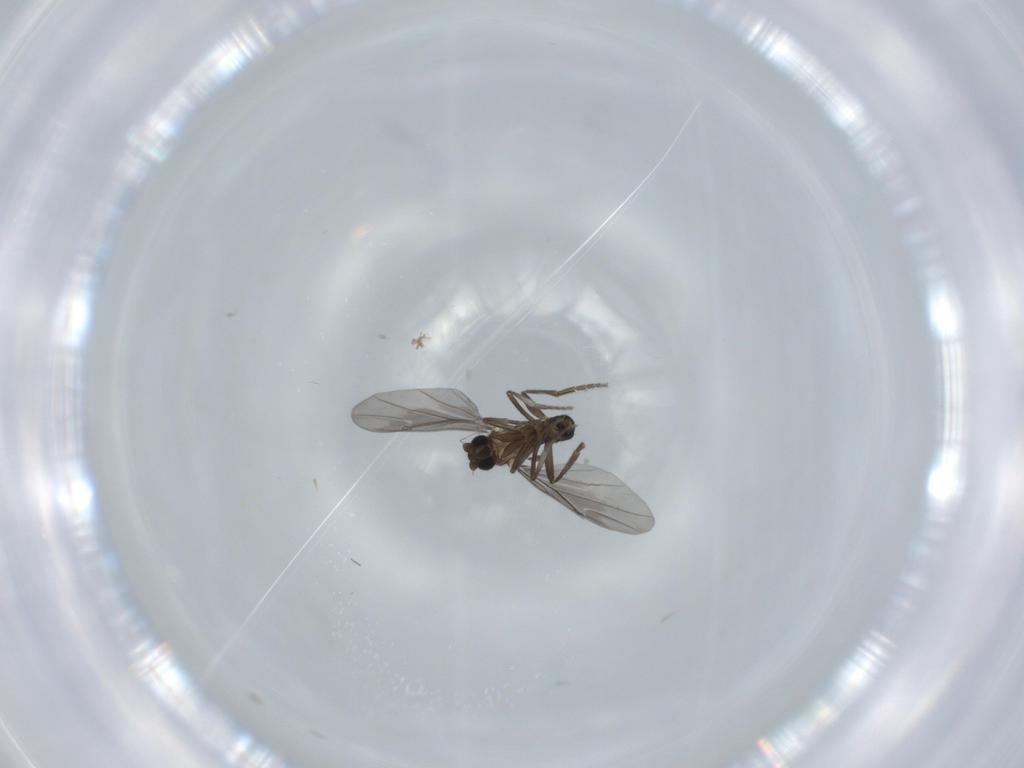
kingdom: Animalia
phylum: Arthropoda
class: Insecta
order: Diptera
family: Phoridae
